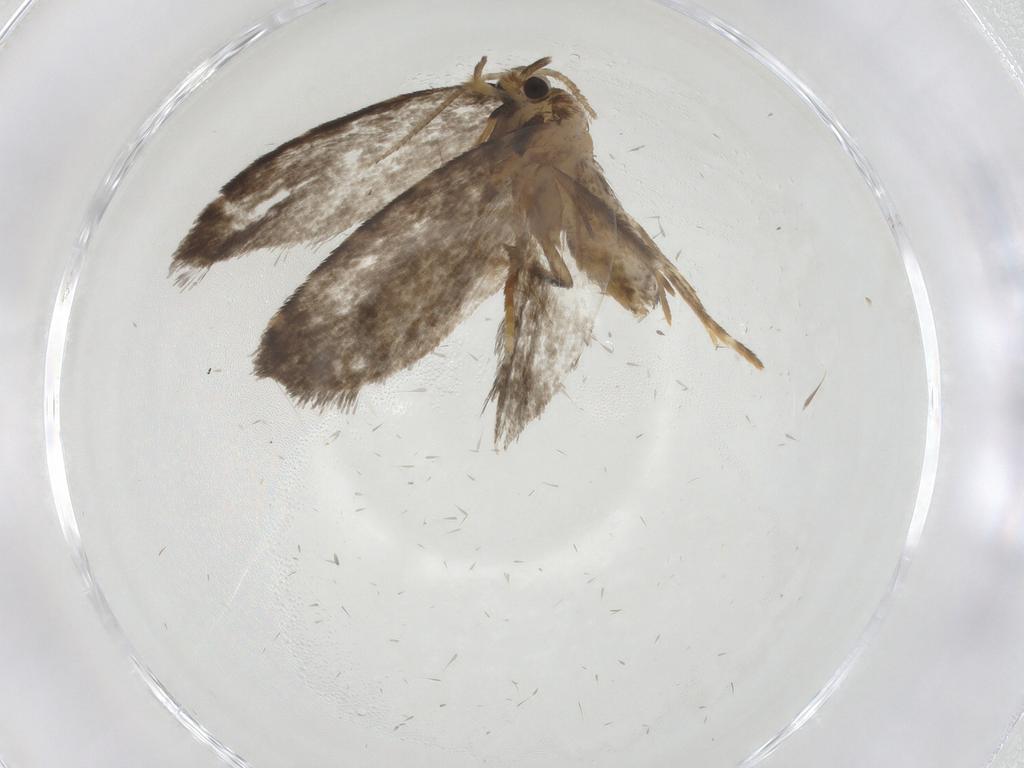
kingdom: Animalia
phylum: Arthropoda
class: Insecta
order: Lepidoptera
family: Psychidae
